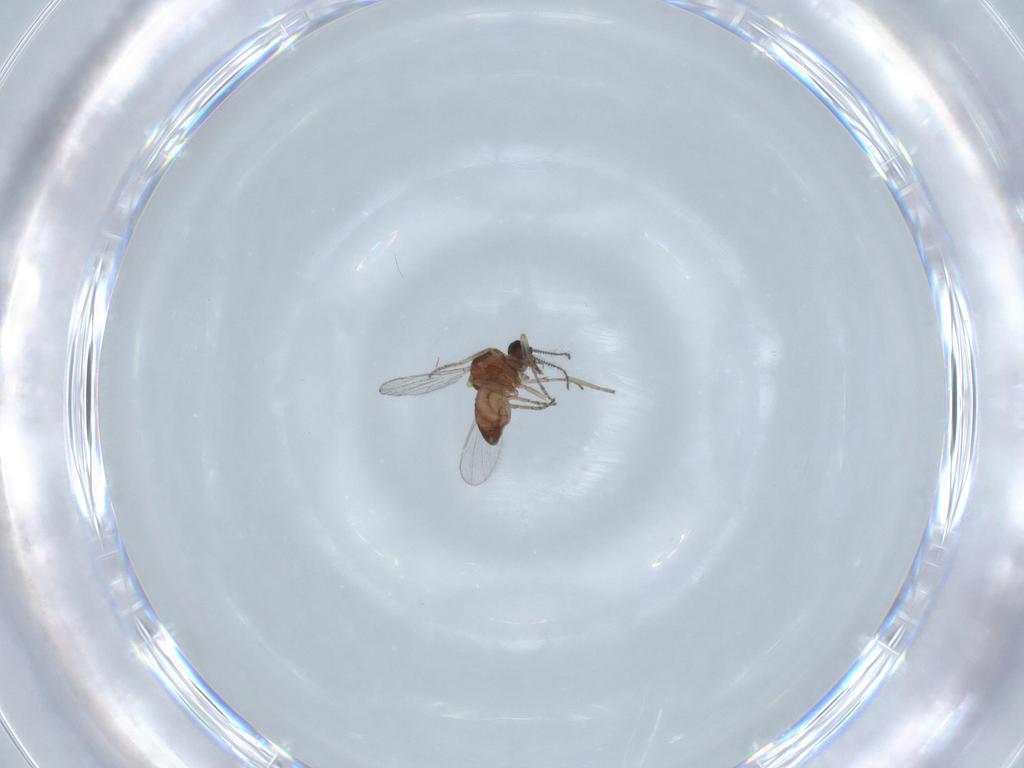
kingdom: Animalia
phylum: Arthropoda
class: Insecta
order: Diptera
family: Ceratopogonidae
